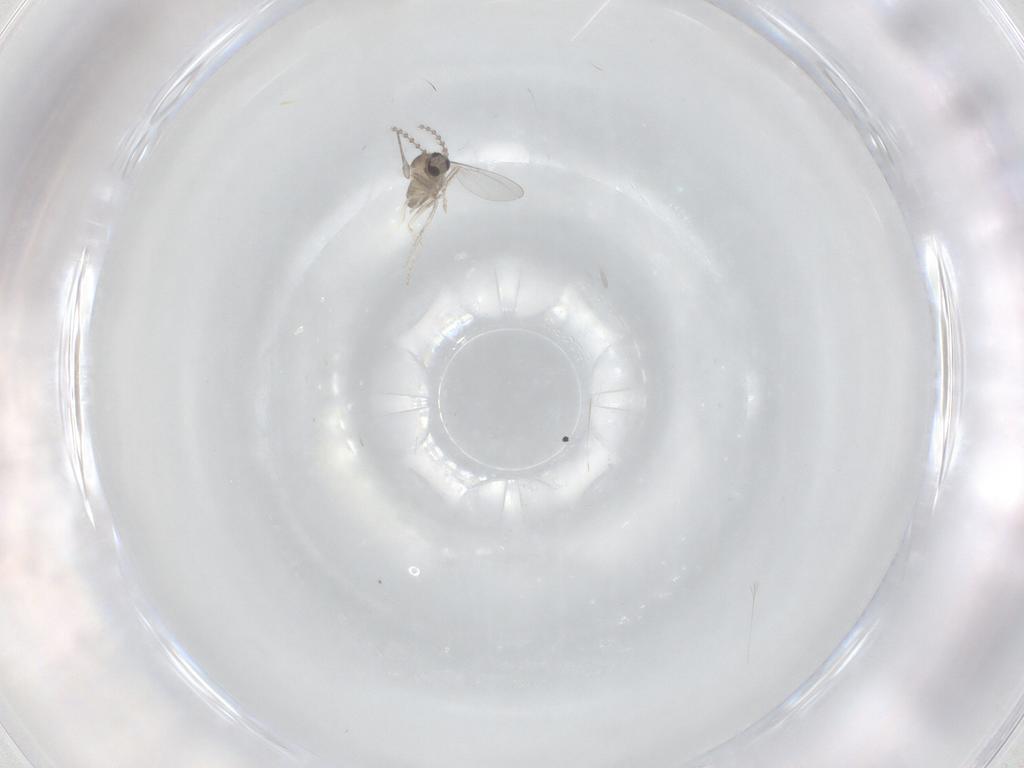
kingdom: Animalia
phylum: Arthropoda
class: Insecta
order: Diptera
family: Cecidomyiidae
